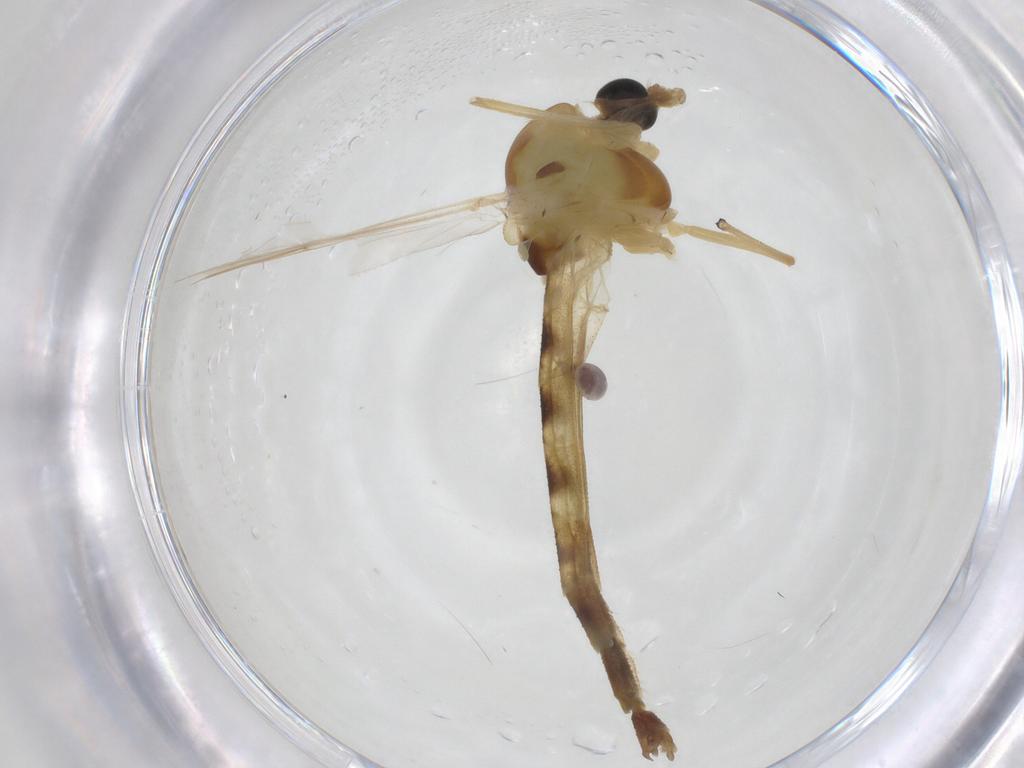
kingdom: Animalia
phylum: Arthropoda
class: Insecta
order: Diptera
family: Chironomidae
